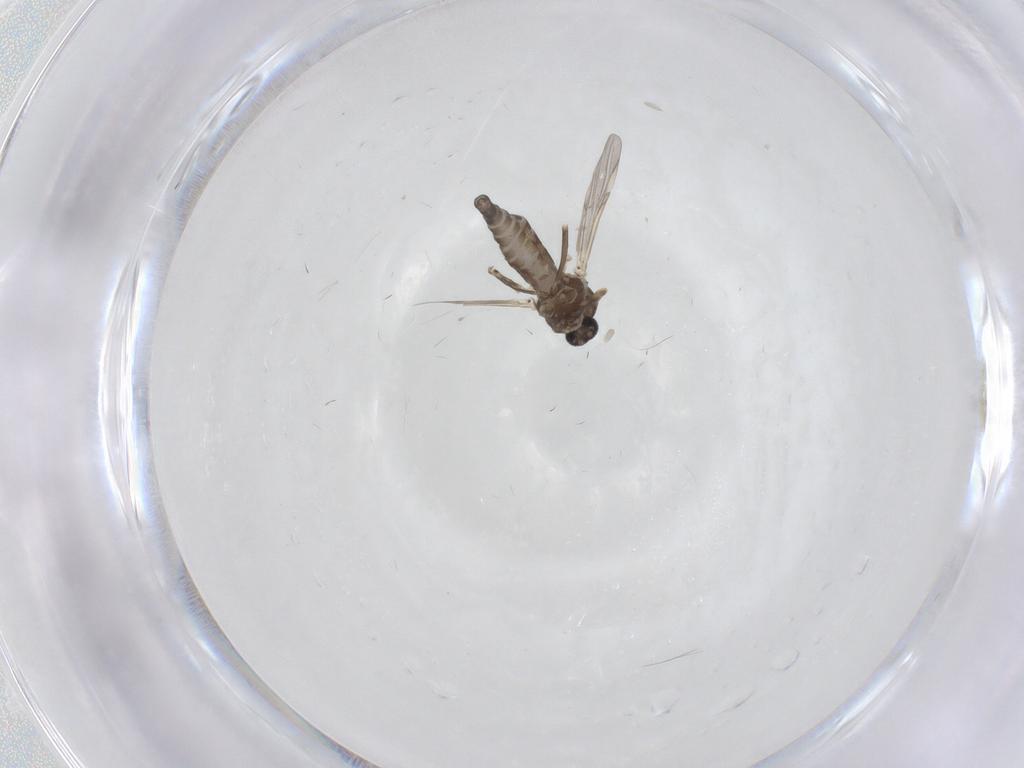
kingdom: Animalia
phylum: Arthropoda
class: Insecta
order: Diptera
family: Ceratopogonidae
